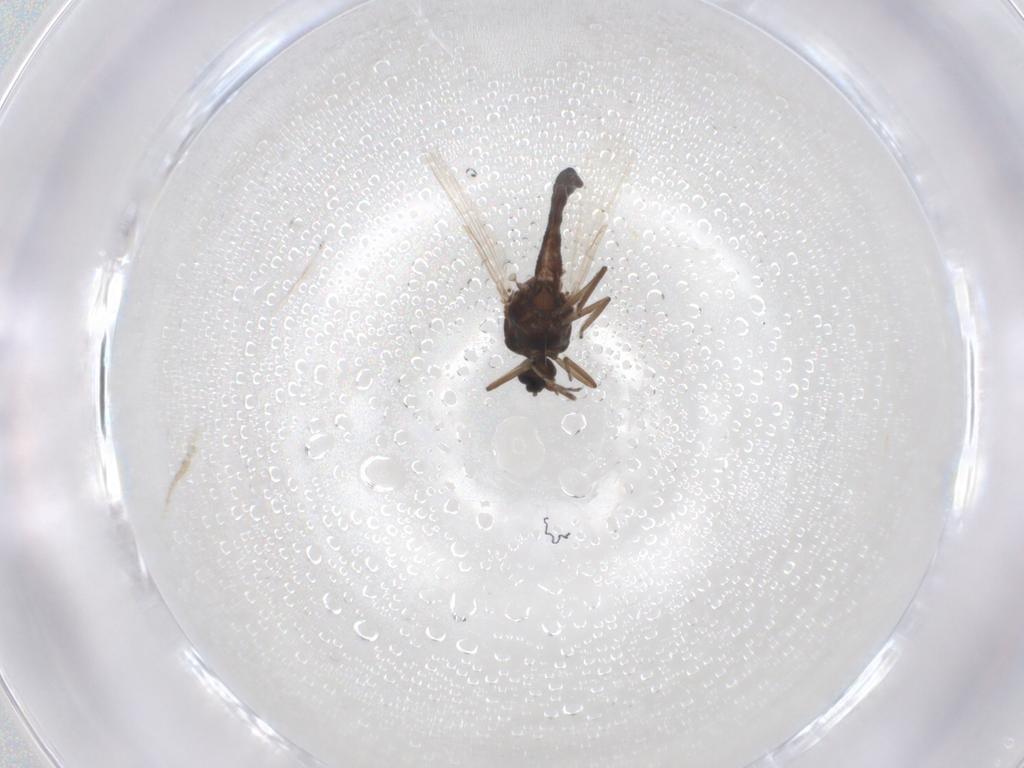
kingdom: Animalia
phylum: Arthropoda
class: Insecta
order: Diptera
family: Ceratopogonidae
